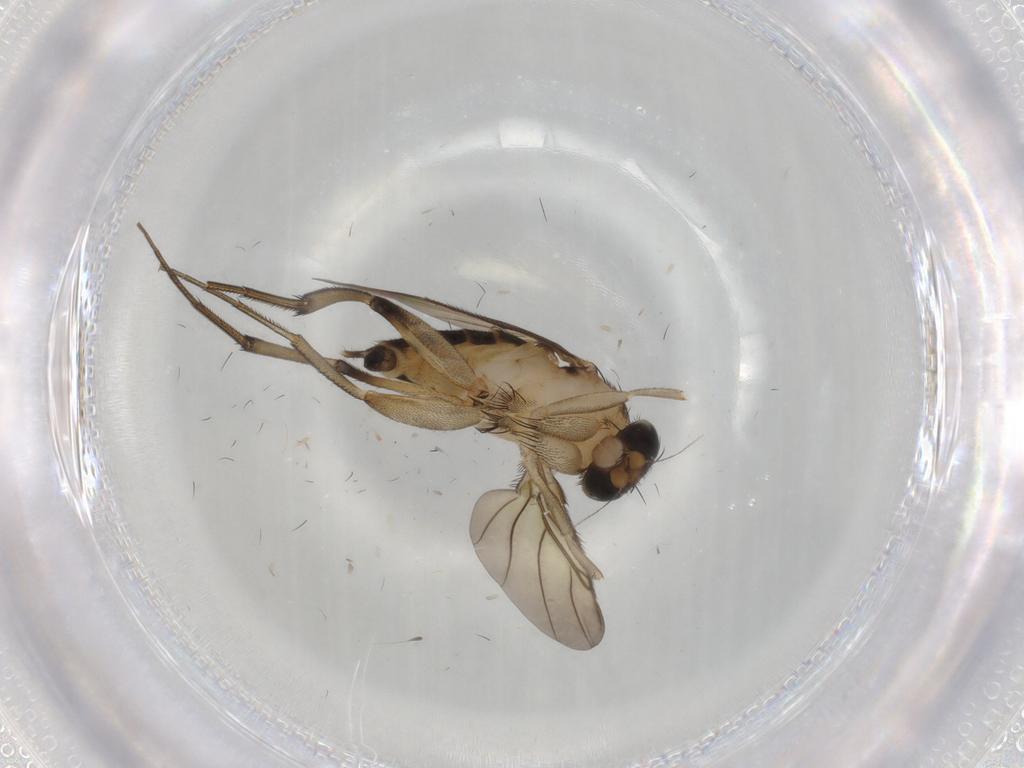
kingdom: Animalia
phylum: Arthropoda
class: Insecta
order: Diptera
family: Phoridae
